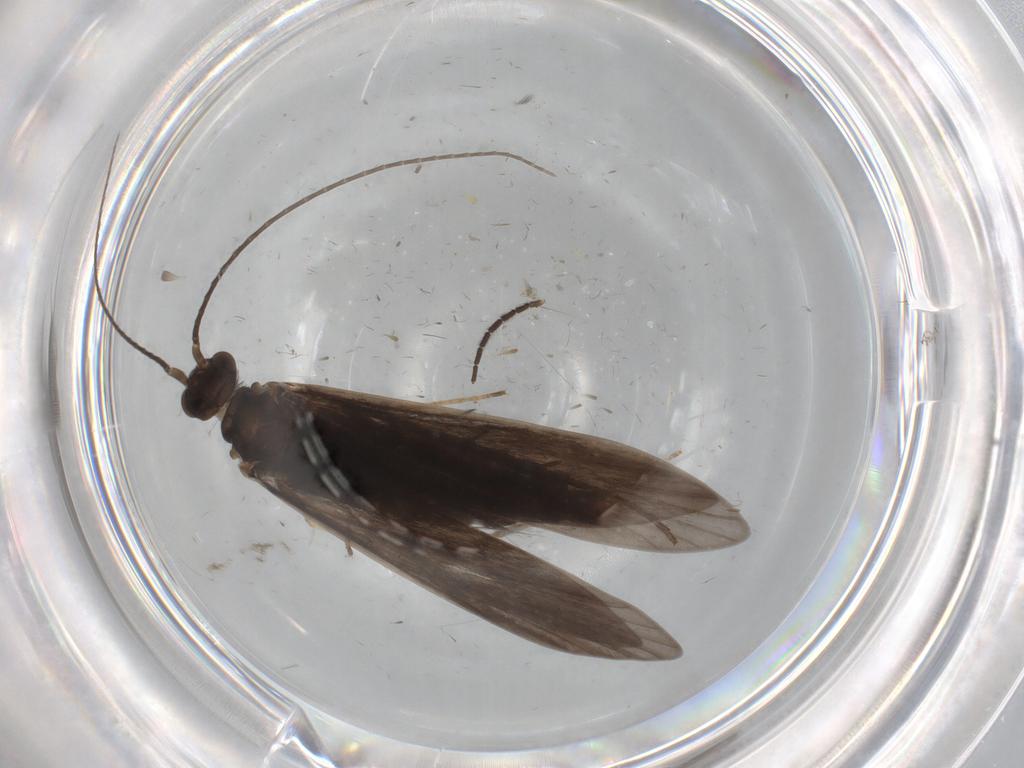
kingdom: Animalia
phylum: Arthropoda
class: Insecta
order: Trichoptera
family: Xiphocentronidae
